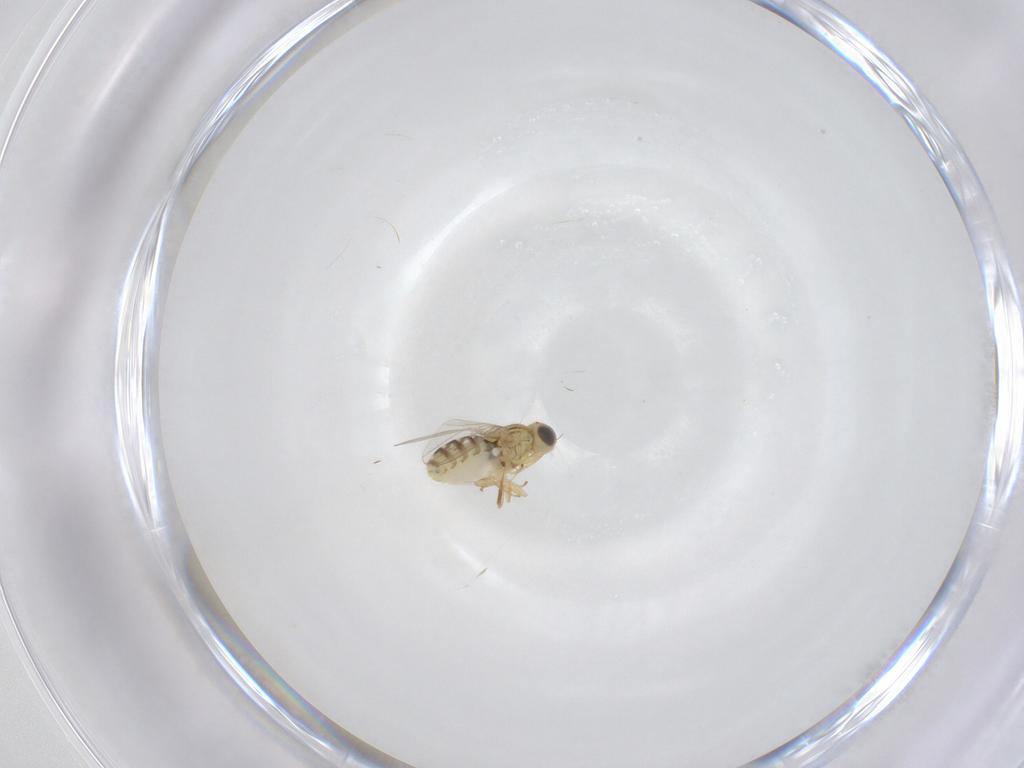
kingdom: Animalia
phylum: Arthropoda
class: Insecta
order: Diptera
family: Chyromyidae
